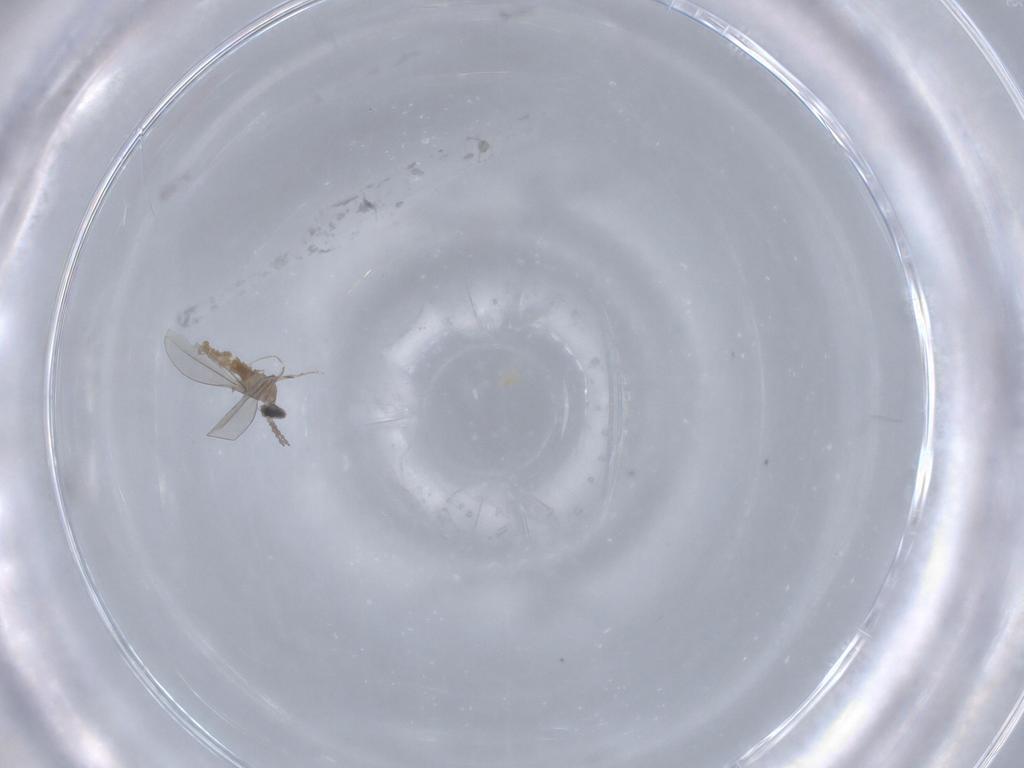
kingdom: Animalia
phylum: Arthropoda
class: Insecta
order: Diptera
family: Cecidomyiidae
